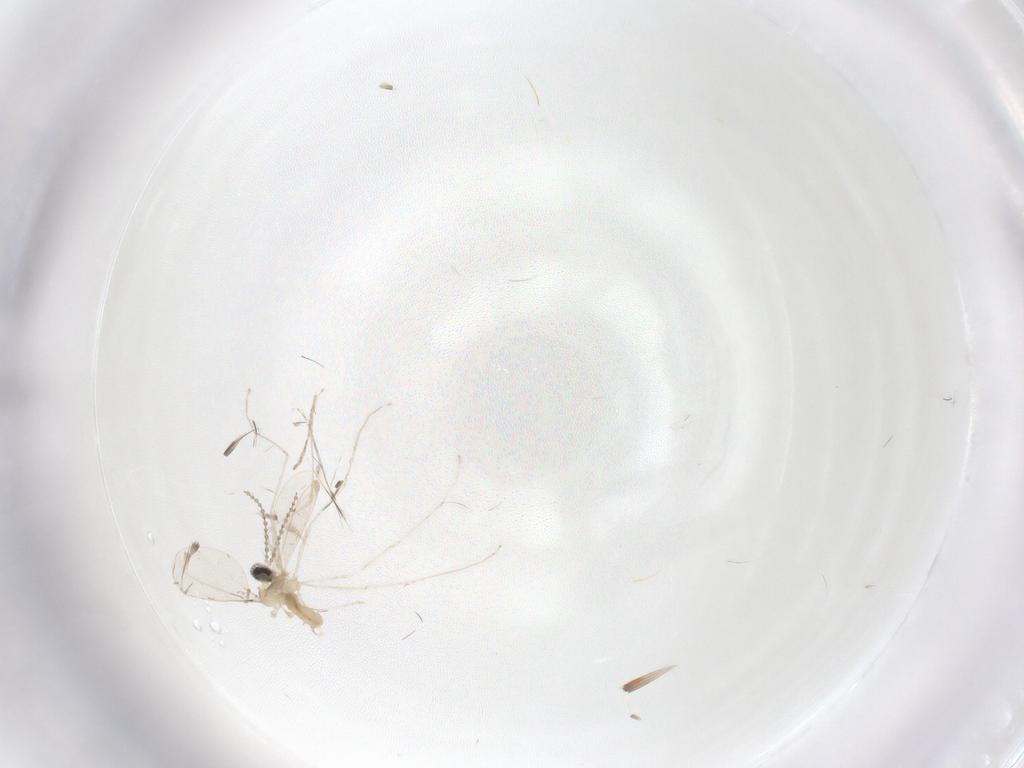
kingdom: Animalia
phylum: Arthropoda
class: Insecta
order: Diptera
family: Cecidomyiidae
